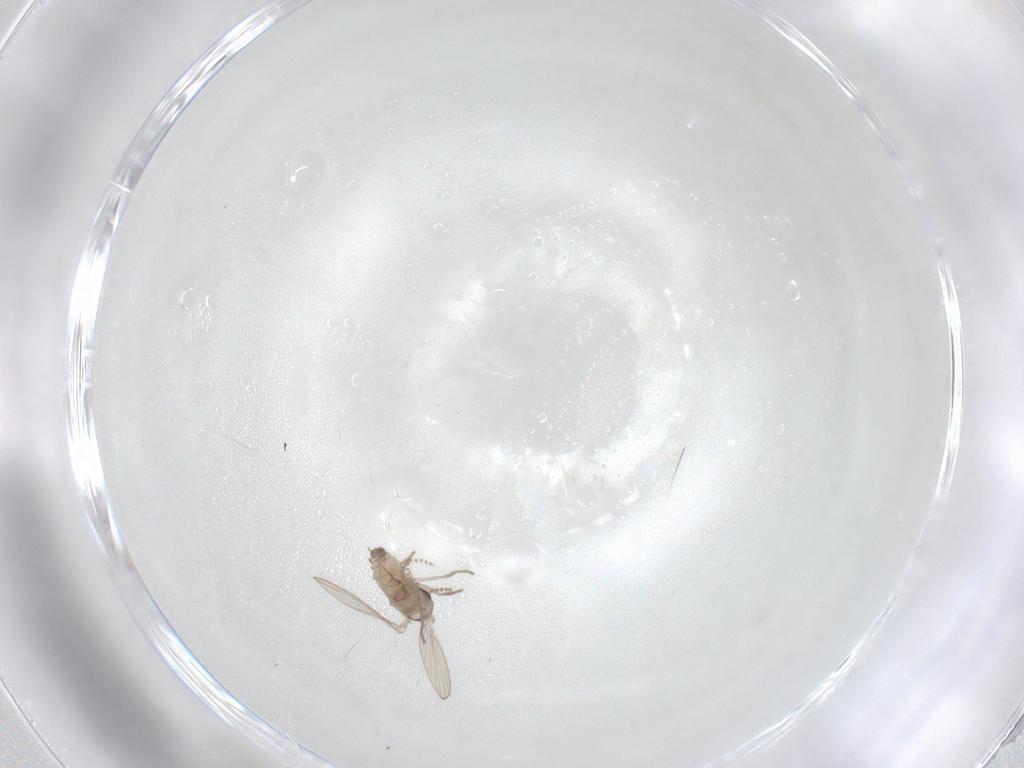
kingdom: Animalia
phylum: Arthropoda
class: Insecta
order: Diptera
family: Psychodidae
